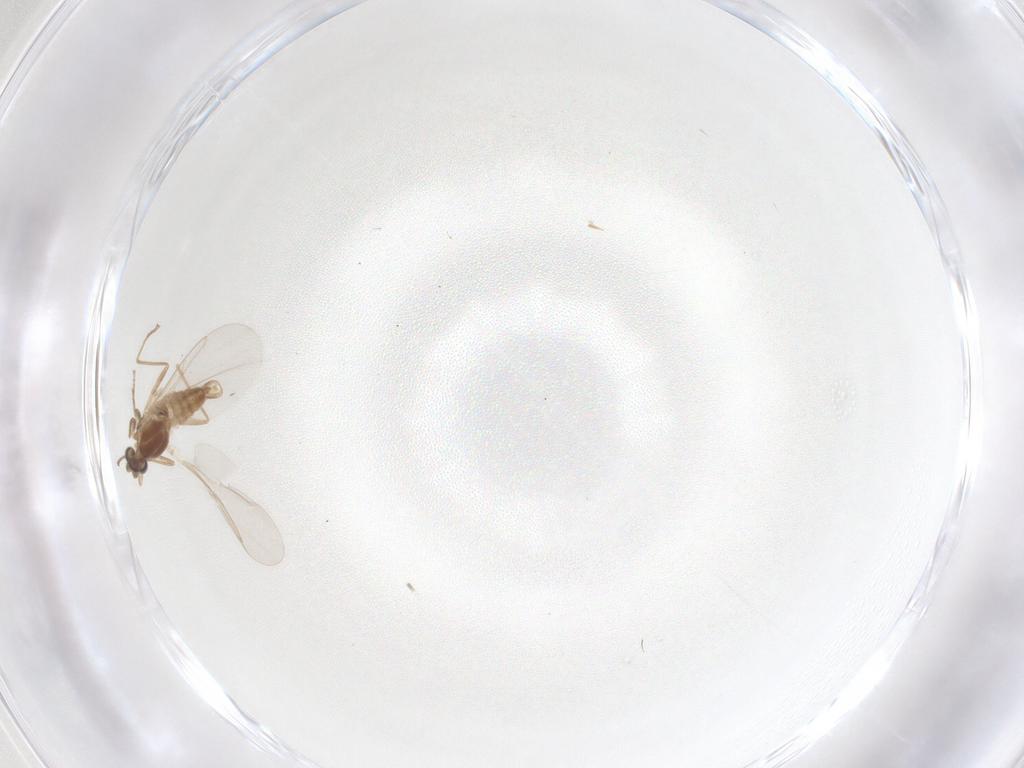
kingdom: Animalia
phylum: Arthropoda
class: Insecta
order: Diptera
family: Cecidomyiidae
